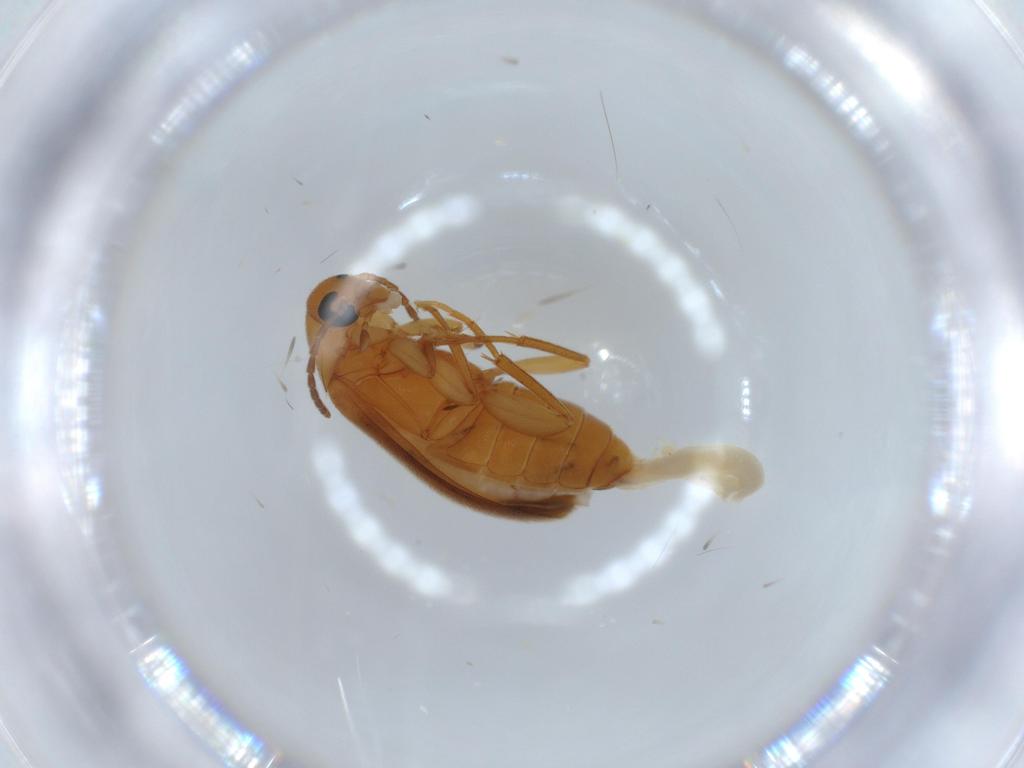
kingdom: Animalia
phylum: Arthropoda
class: Insecta
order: Coleoptera
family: Scraptiidae
